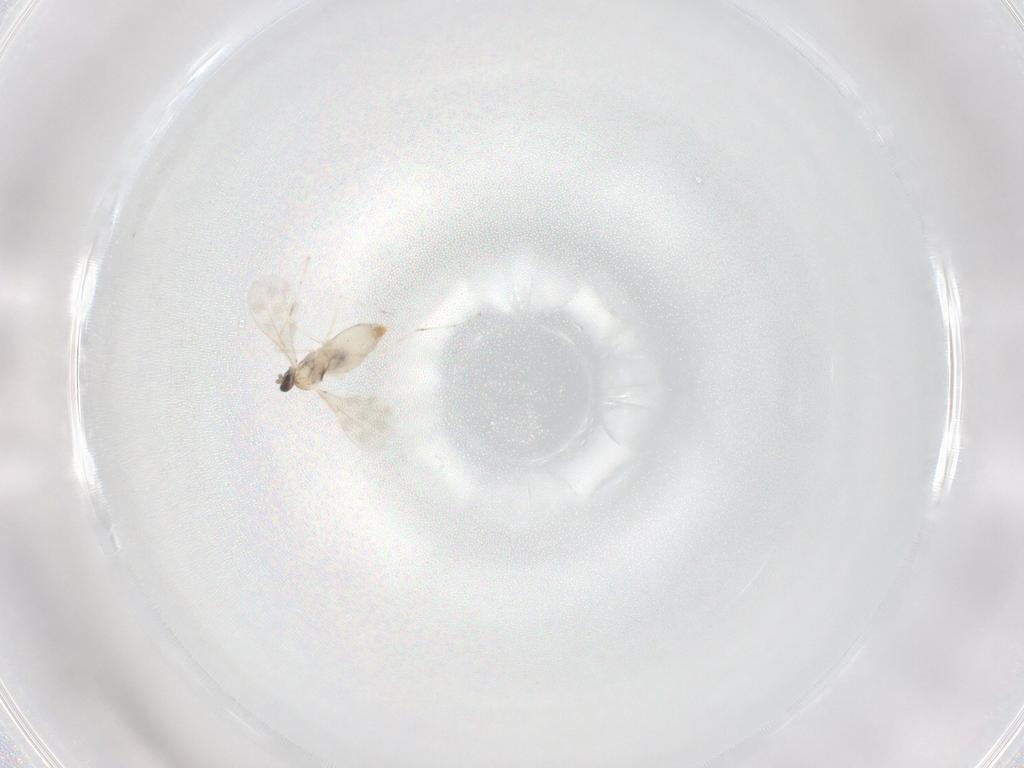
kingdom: Animalia
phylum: Arthropoda
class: Insecta
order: Diptera
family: Cecidomyiidae
